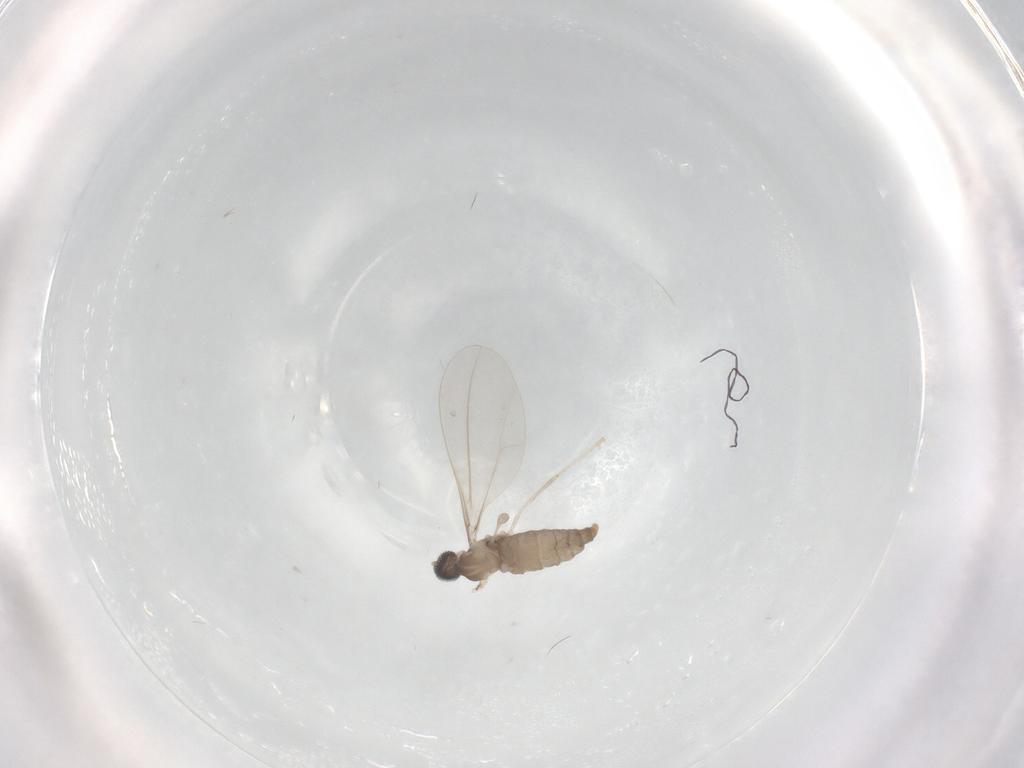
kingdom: Animalia
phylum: Arthropoda
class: Insecta
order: Diptera
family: Cecidomyiidae
